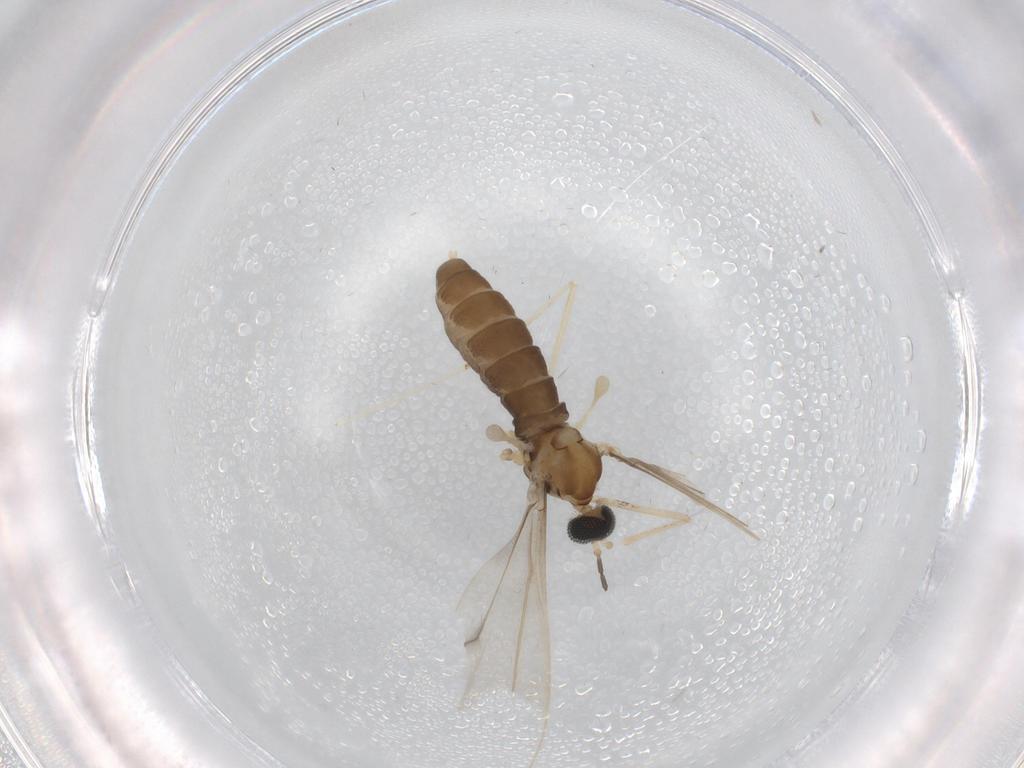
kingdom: Animalia
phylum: Arthropoda
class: Insecta
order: Diptera
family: Cecidomyiidae
